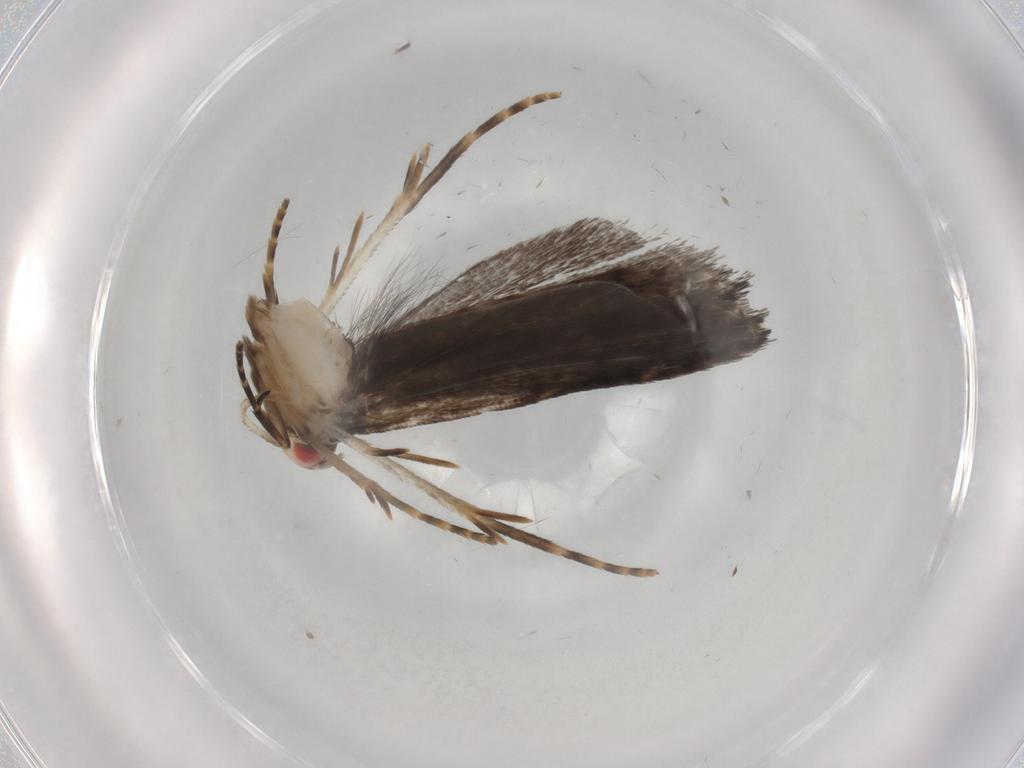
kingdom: Animalia
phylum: Arthropoda
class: Insecta
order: Lepidoptera
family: Gelechiidae
